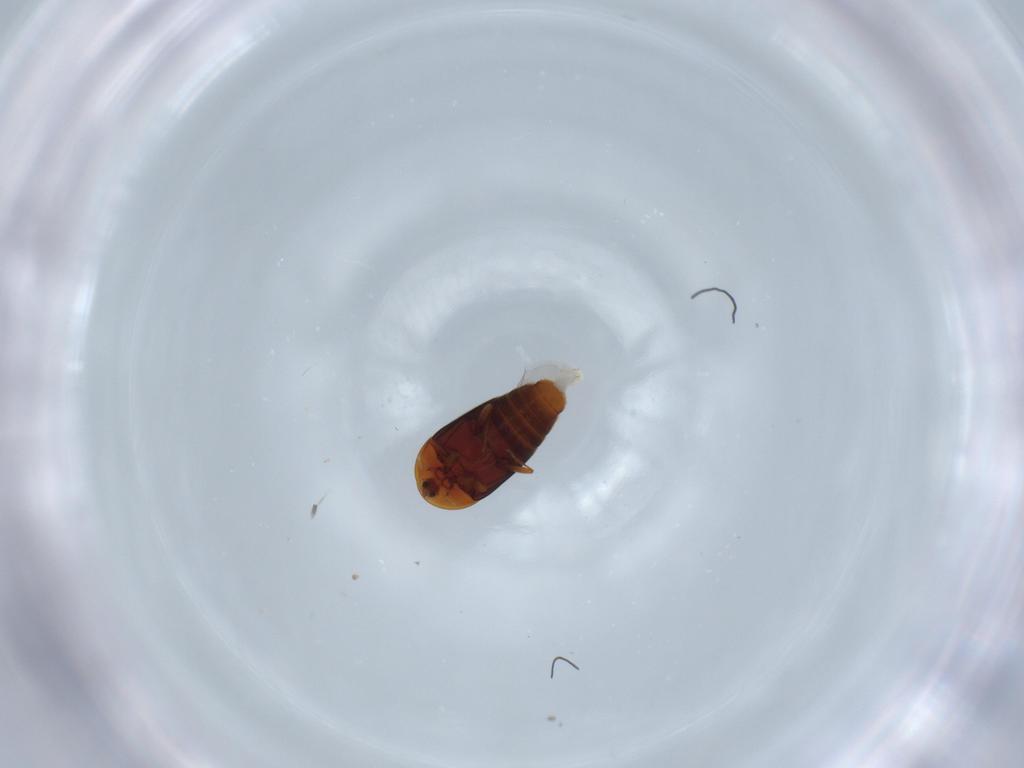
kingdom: Animalia
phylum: Arthropoda
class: Insecta
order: Coleoptera
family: Corylophidae
